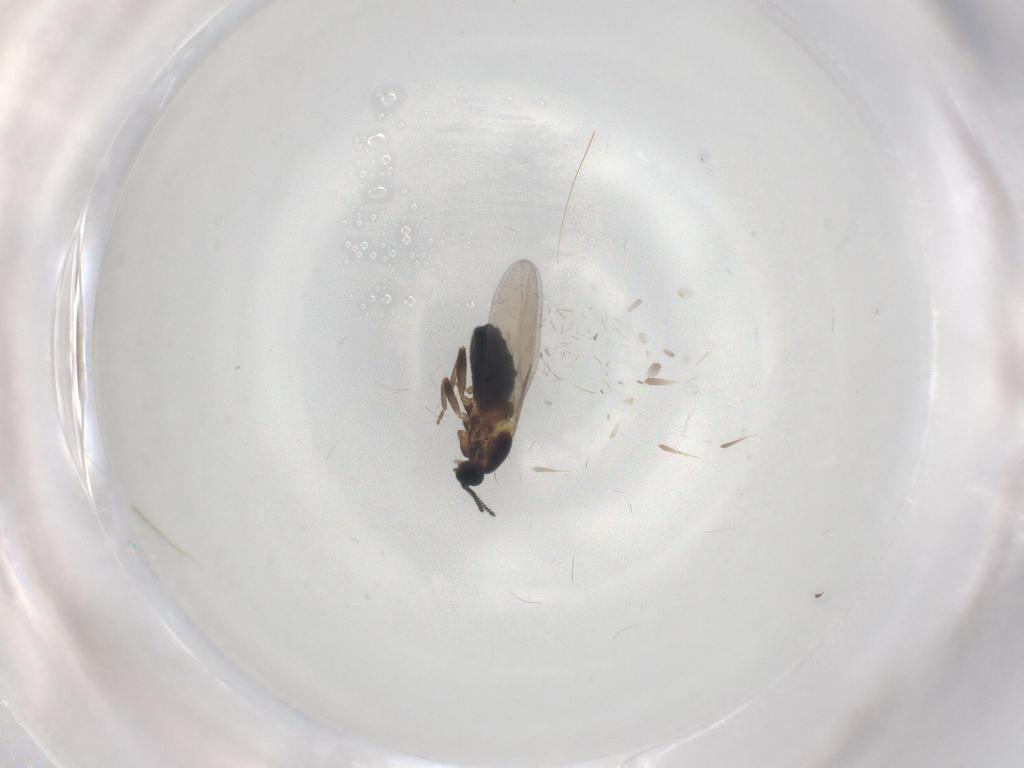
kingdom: Animalia
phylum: Arthropoda
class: Insecta
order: Diptera
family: Scatopsidae
